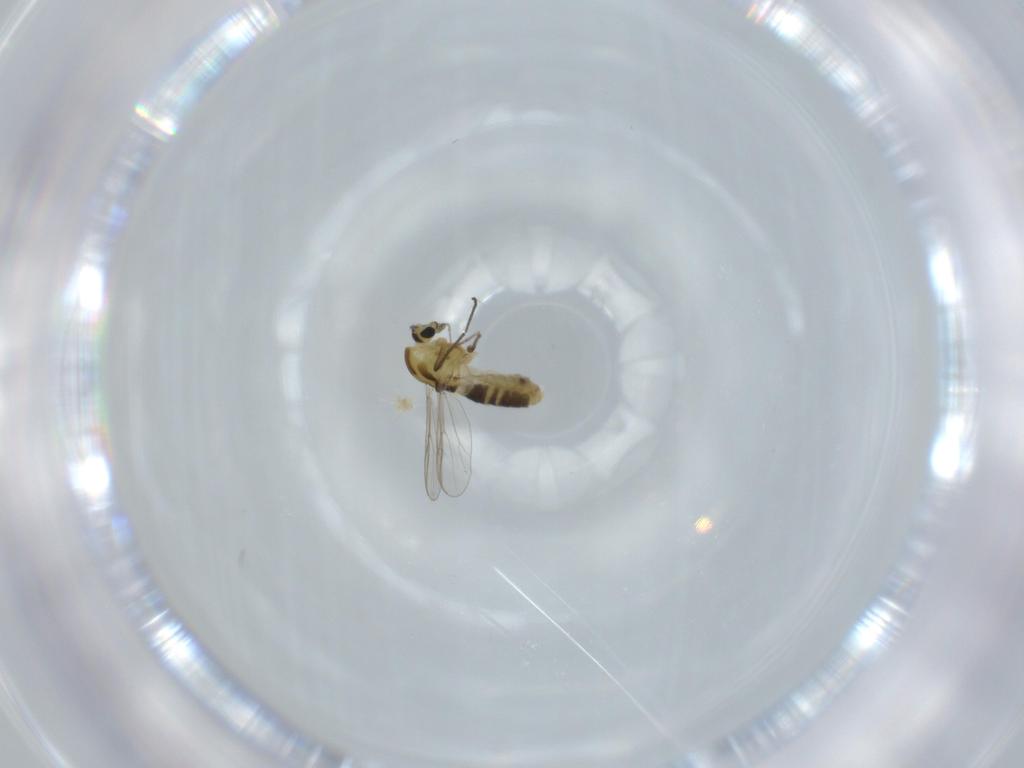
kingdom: Animalia
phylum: Arthropoda
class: Insecta
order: Diptera
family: Chironomidae
